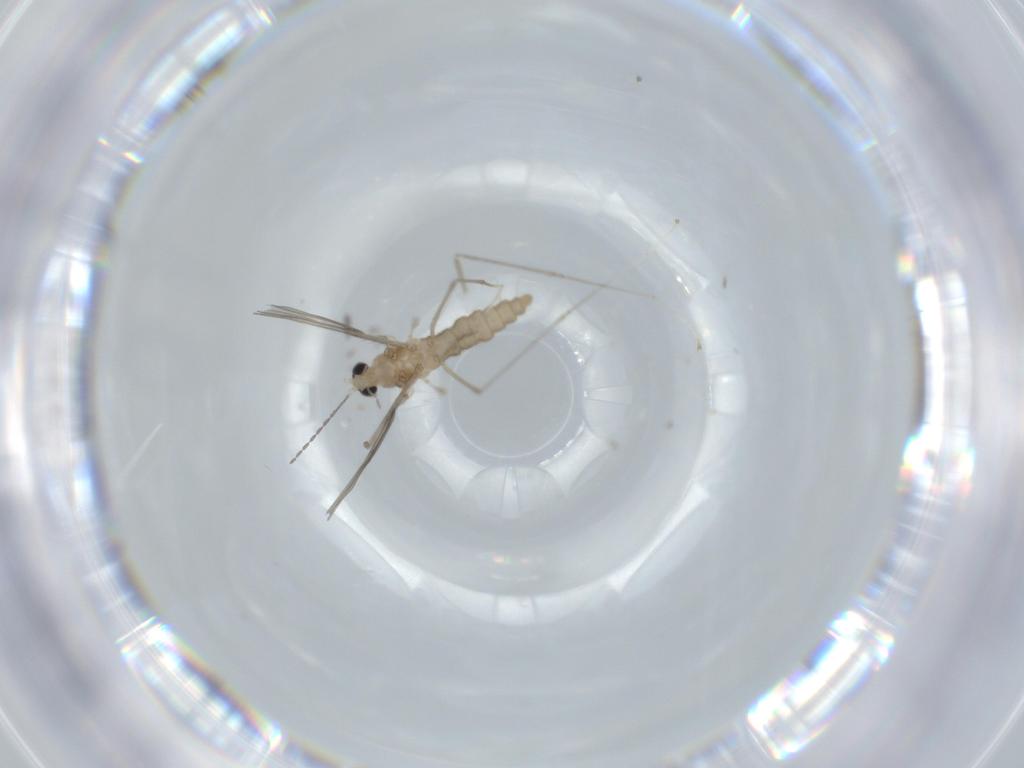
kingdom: Animalia
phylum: Arthropoda
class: Insecta
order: Diptera
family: Cecidomyiidae
